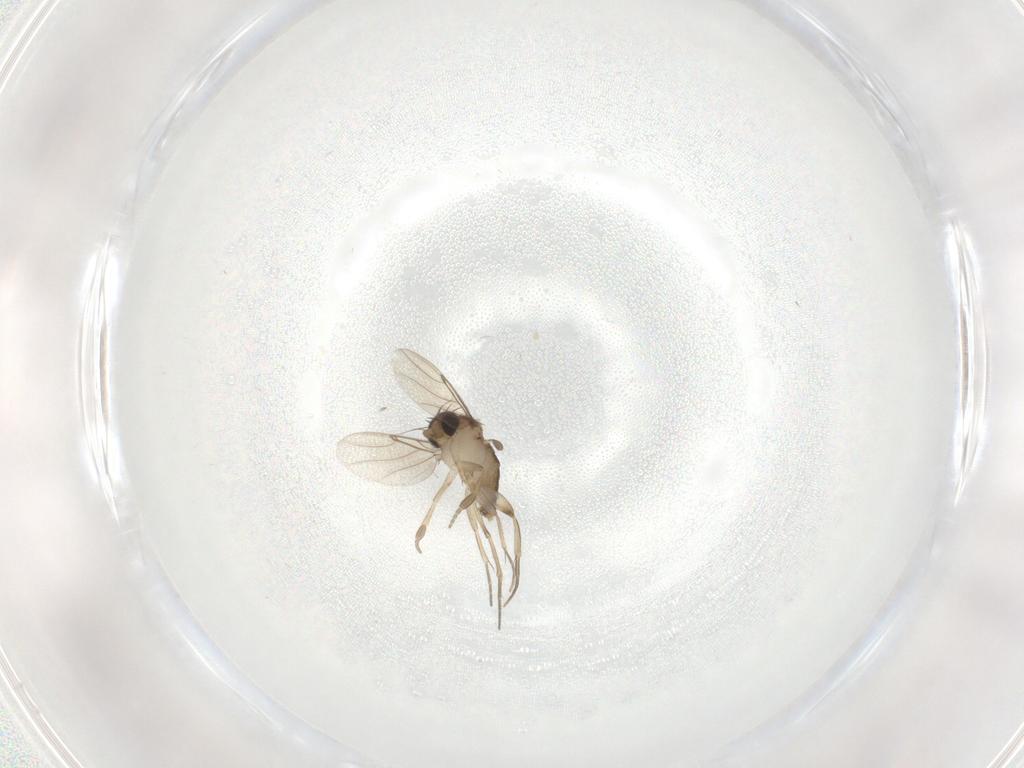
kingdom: Animalia
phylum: Arthropoda
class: Insecta
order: Diptera
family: Phoridae
